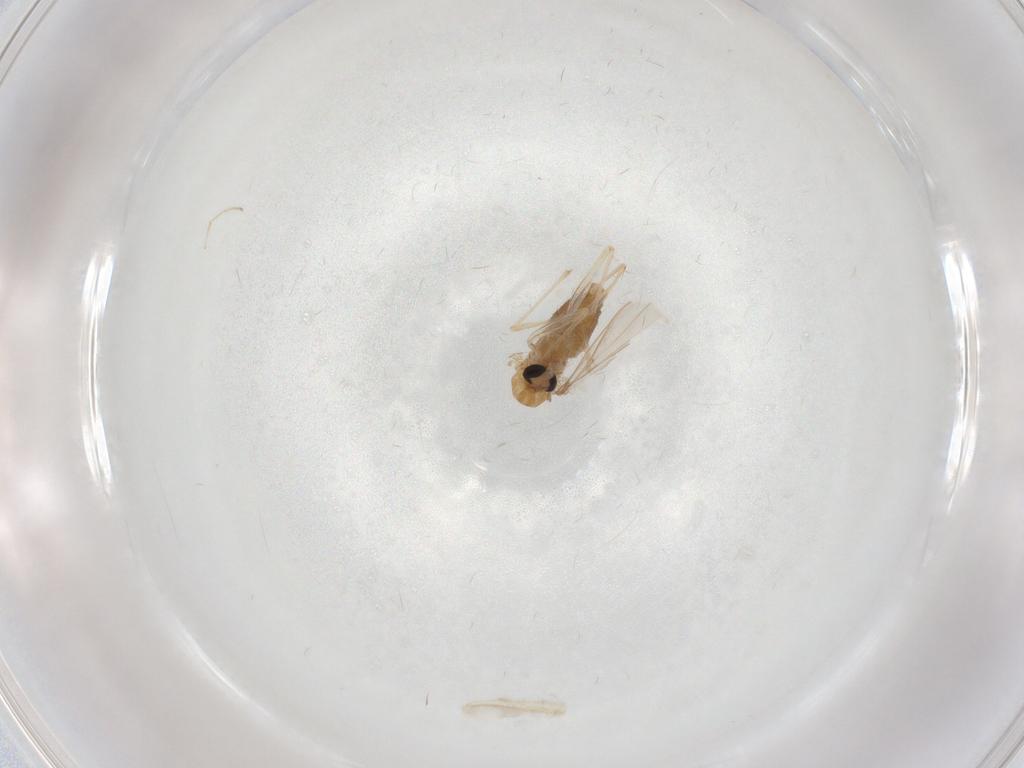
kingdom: Animalia
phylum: Arthropoda
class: Insecta
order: Diptera
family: Chironomidae
